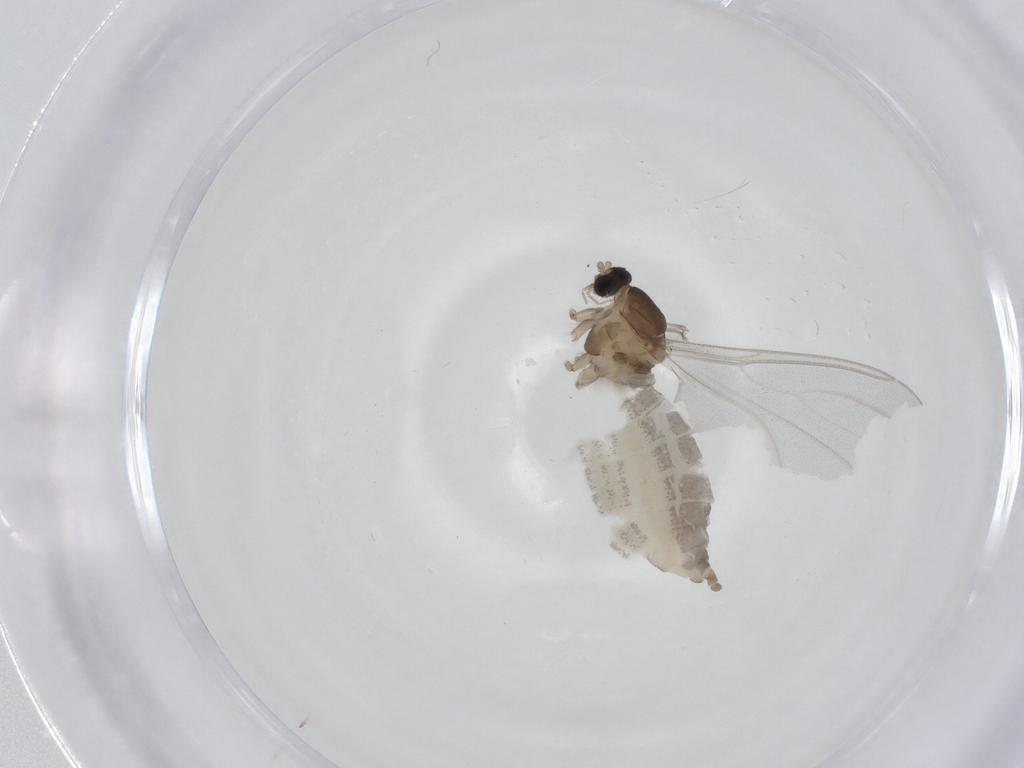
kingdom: Animalia
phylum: Arthropoda
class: Insecta
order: Diptera
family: Cecidomyiidae
